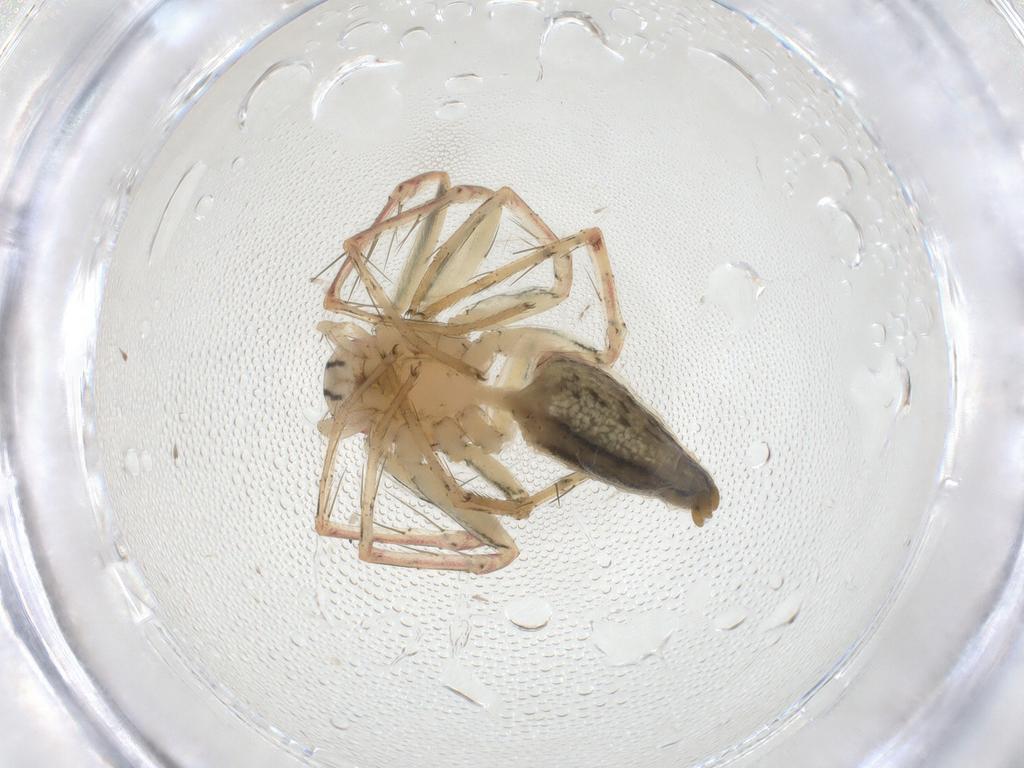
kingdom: Animalia
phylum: Arthropoda
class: Arachnida
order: Araneae
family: Oxyopidae
